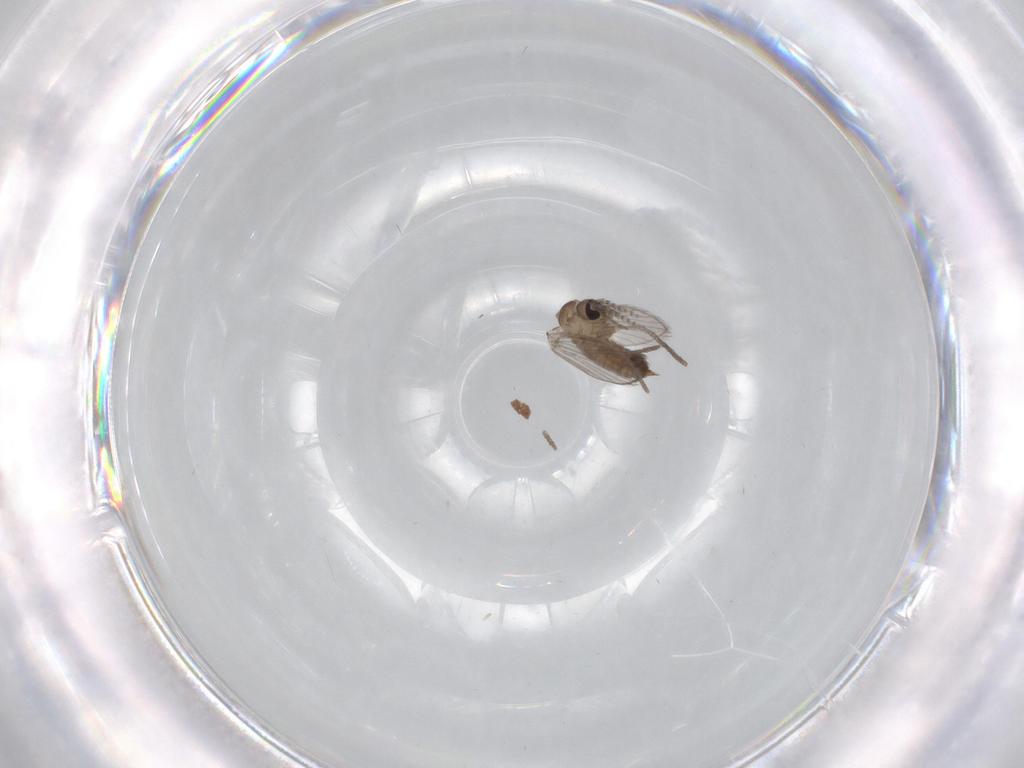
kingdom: Animalia
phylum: Arthropoda
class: Insecta
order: Diptera
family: Psychodidae
